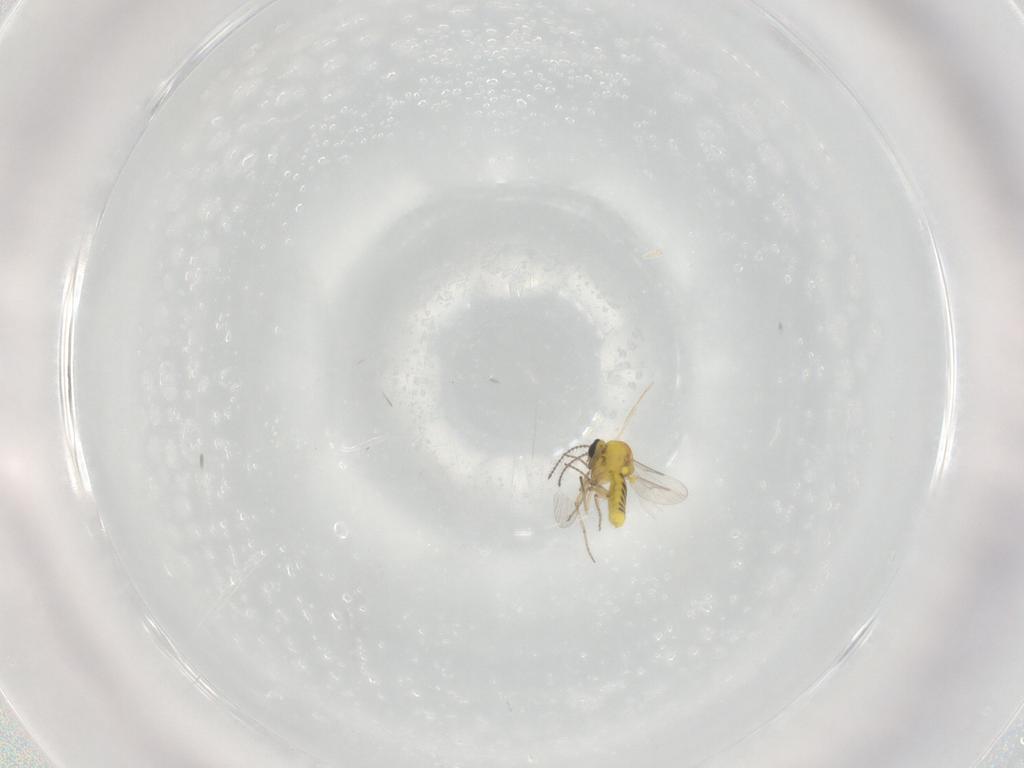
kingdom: Animalia
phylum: Arthropoda
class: Insecta
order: Diptera
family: Ceratopogonidae
